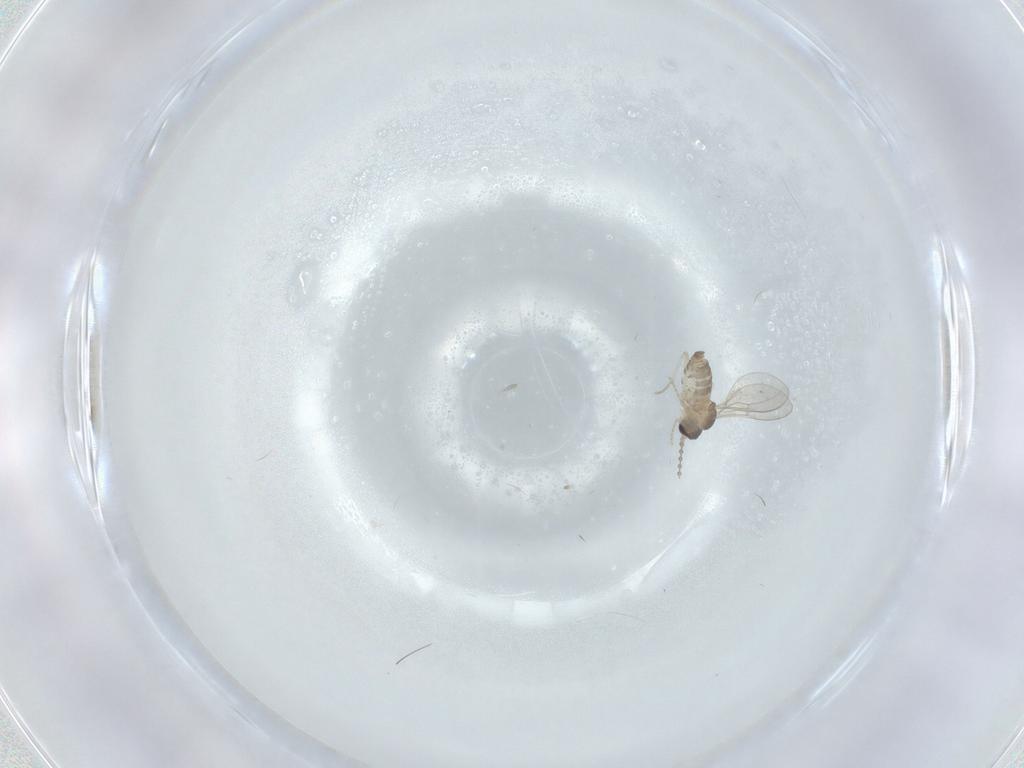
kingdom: Animalia
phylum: Arthropoda
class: Insecta
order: Diptera
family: Cecidomyiidae
